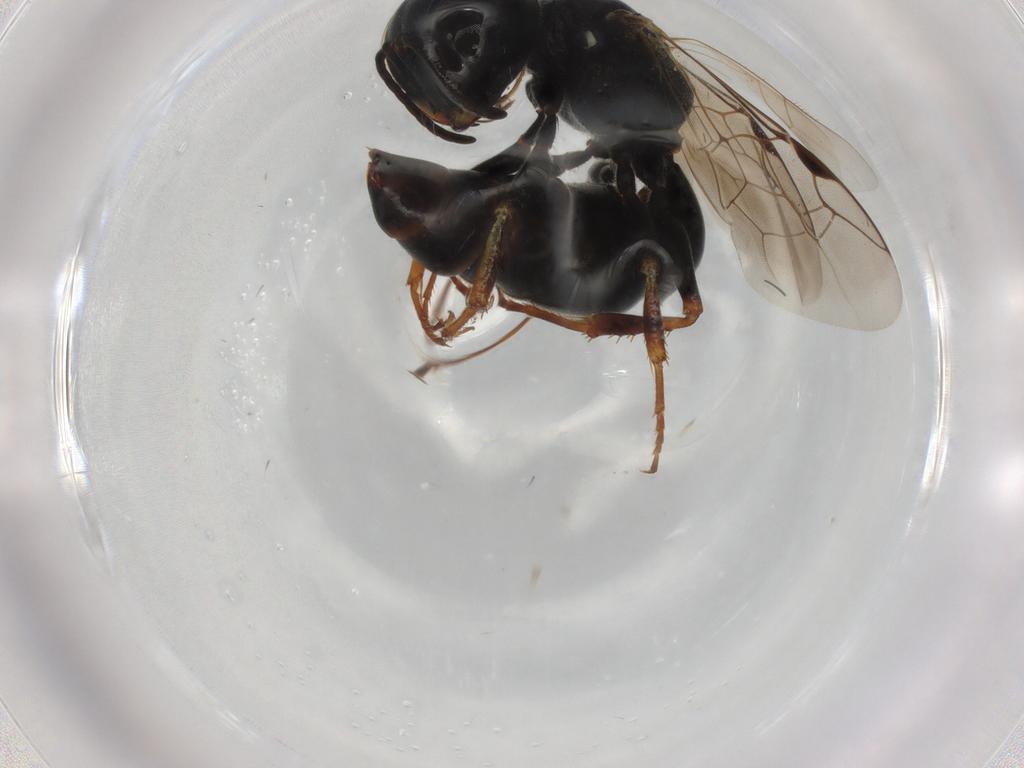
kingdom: Animalia
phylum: Arthropoda
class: Insecta
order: Hymenoptera
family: Crabronidae
